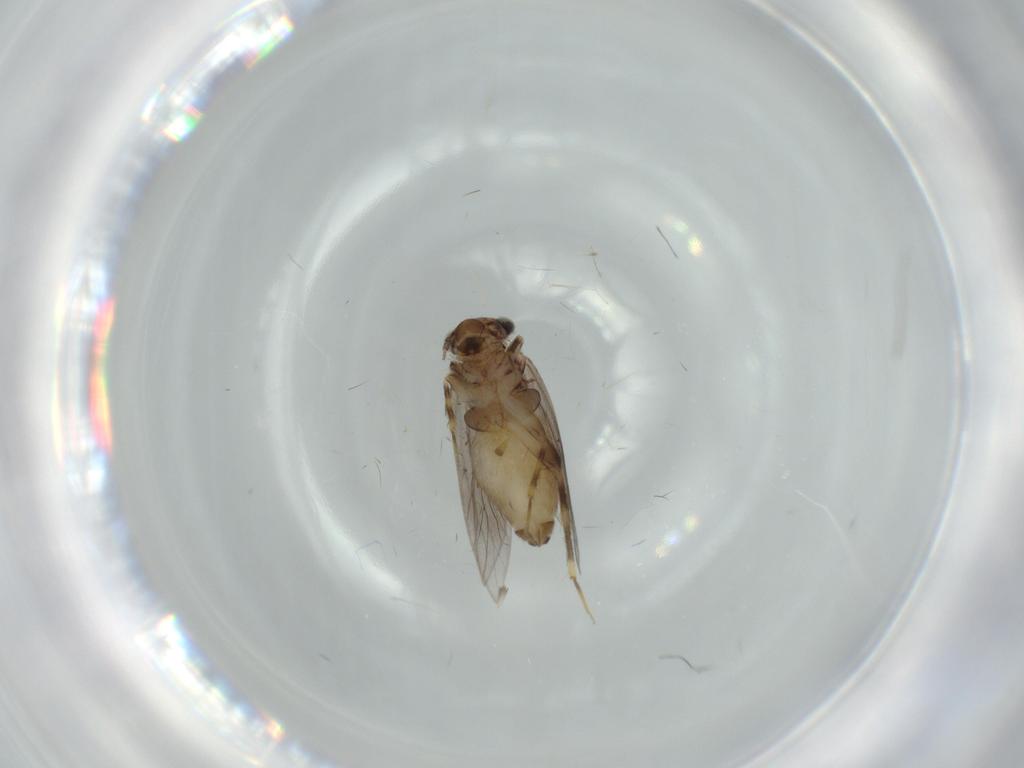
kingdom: Animalia
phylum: Arthropoda
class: Insecta
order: Psocodea
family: Lepidopsocidae
